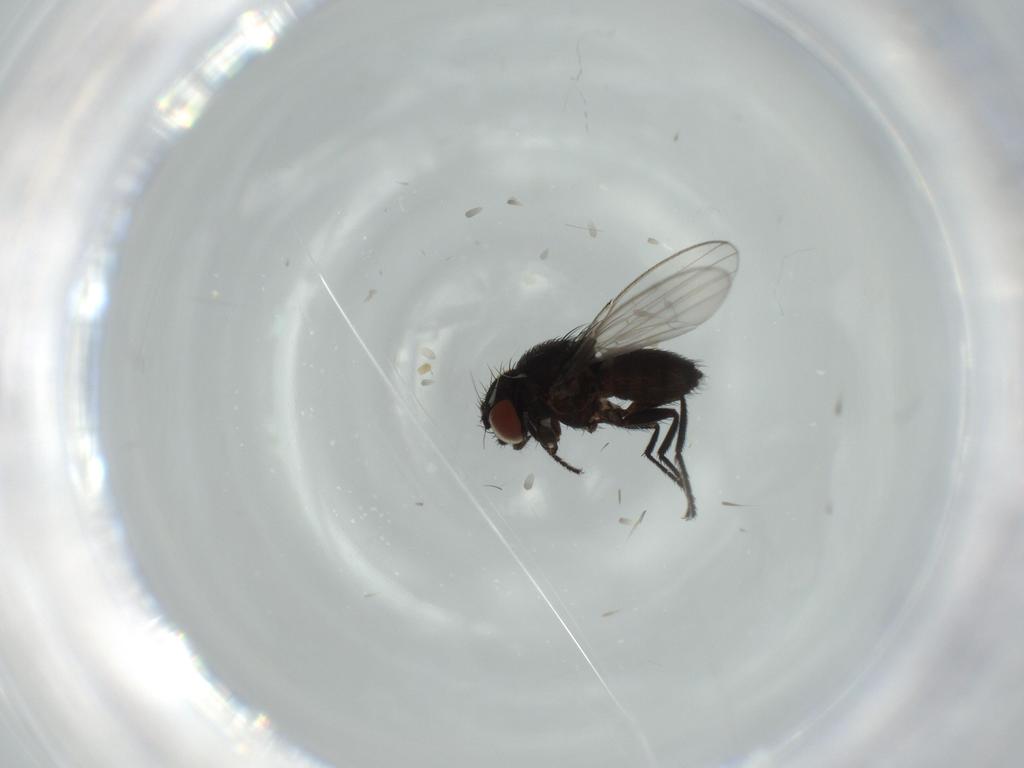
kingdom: Animalia
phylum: Arthropoda
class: Insecta
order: Diptera
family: Milichiidae
